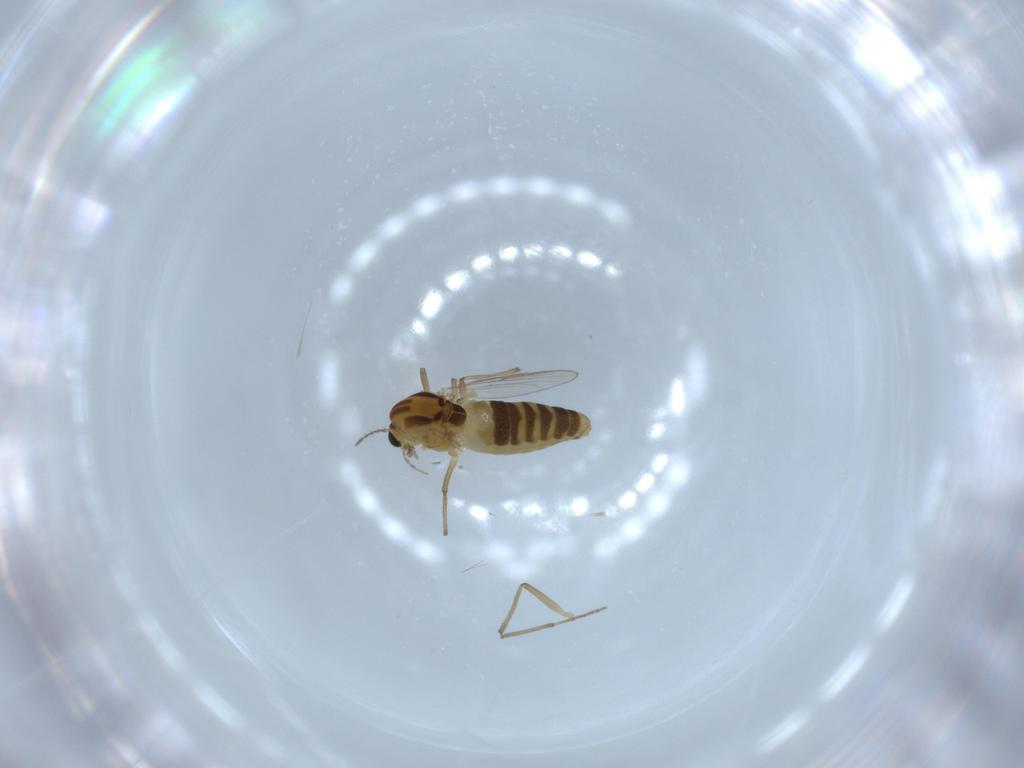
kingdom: Animalia
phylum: Arthropoda
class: Insecta
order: Diptera
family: Chironomidae
